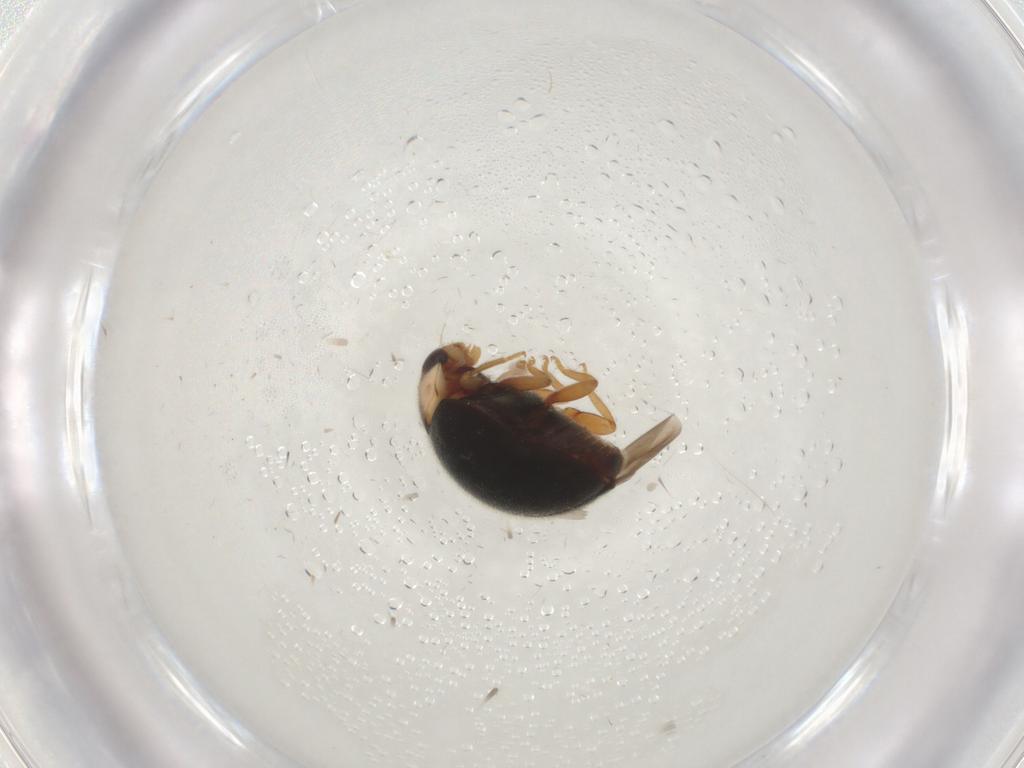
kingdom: Animalia
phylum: Arthropoda
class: Insecta
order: Coleoptera
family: Coccinellidae
